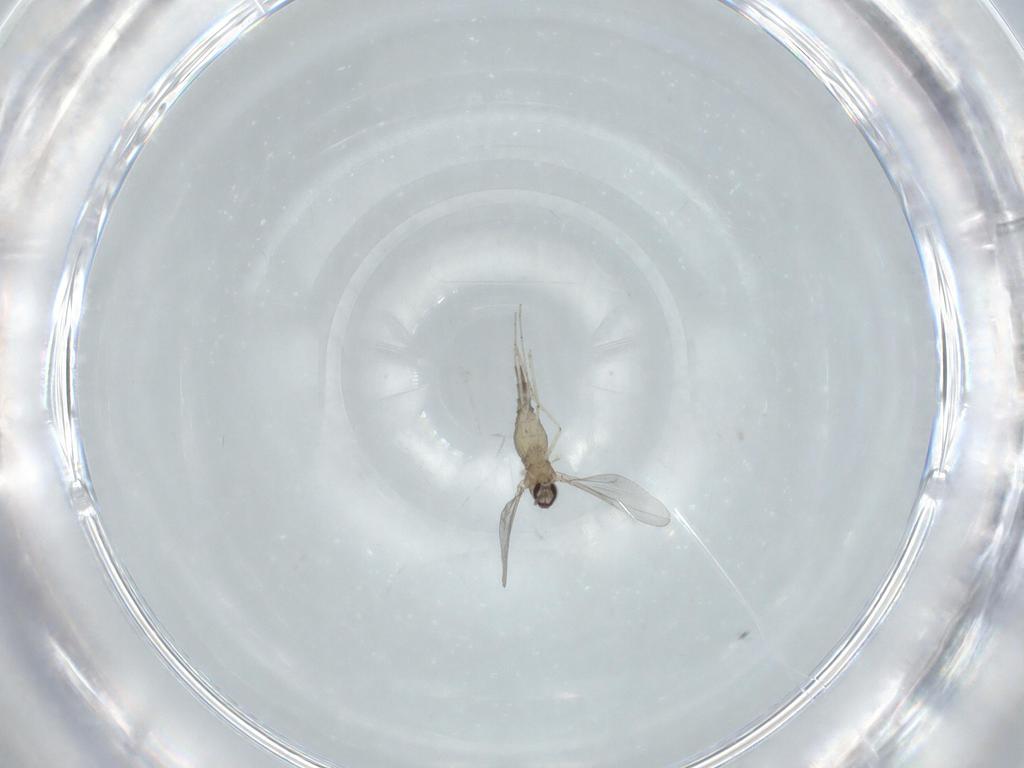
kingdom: Animalia
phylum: Arthropoda
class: Insecta
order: Diptera
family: Cecidomyiidae
